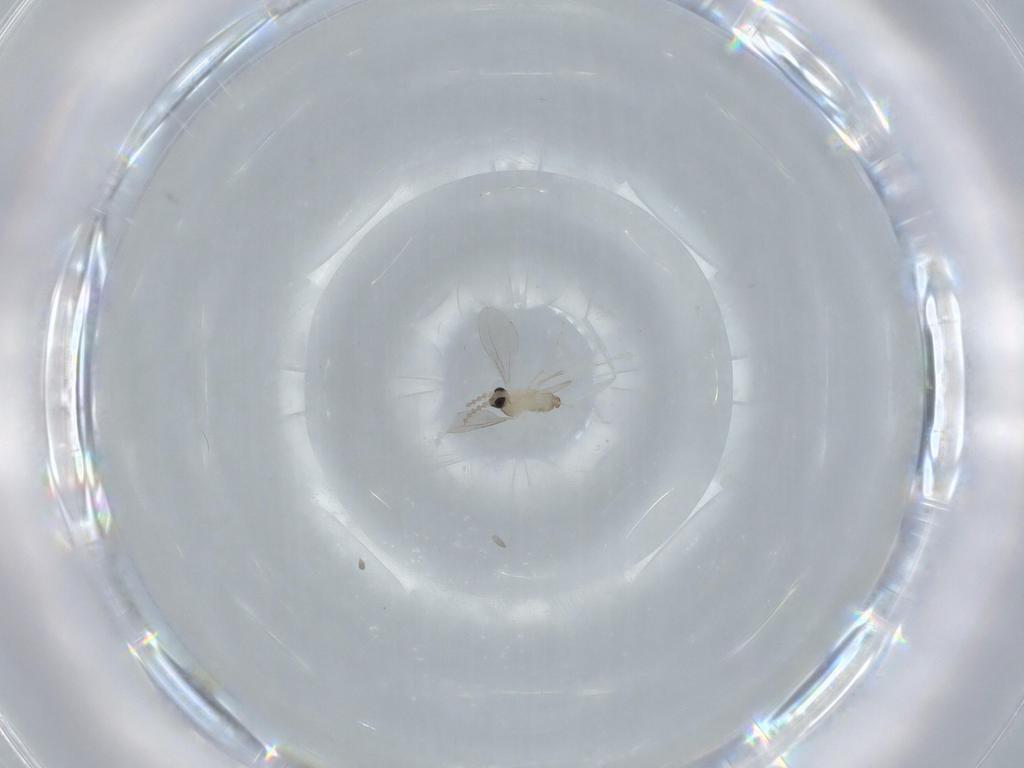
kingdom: Animalia
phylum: Arthropoda
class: Insecta
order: Diptera
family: Cecidomyiidae
